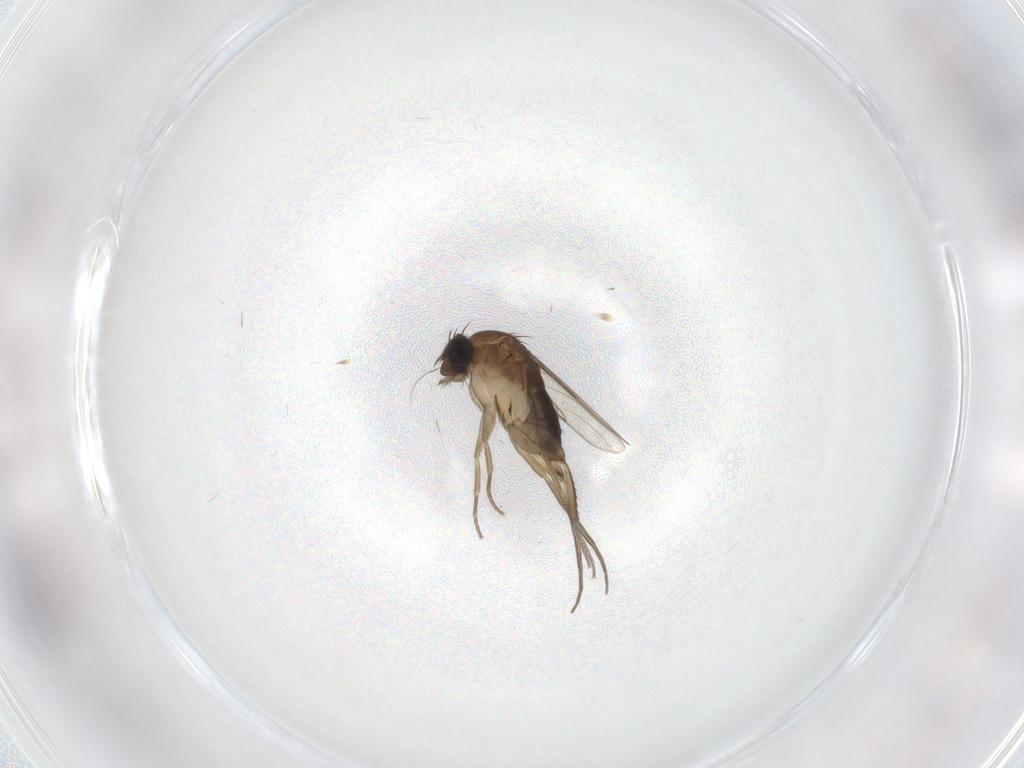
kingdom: Animalia
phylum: Arthropoda
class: Insecta
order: Diptera
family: Phoridae
